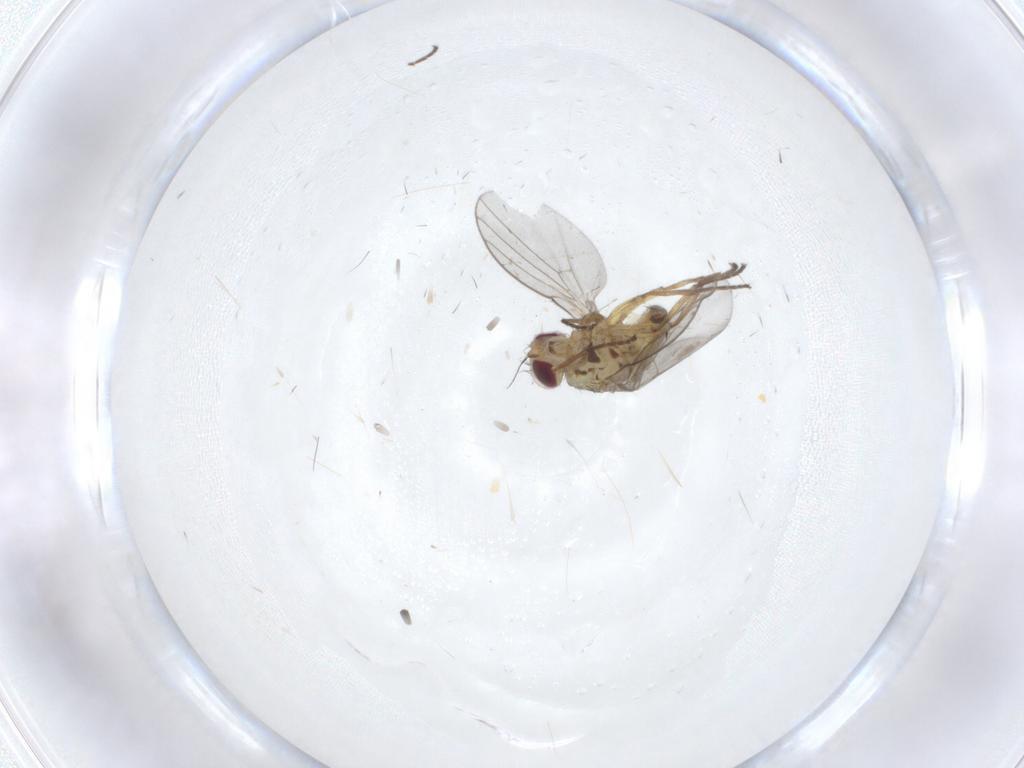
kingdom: Animalia
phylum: Arthropoda
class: Insecta
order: Diptera
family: Agromyzidae
